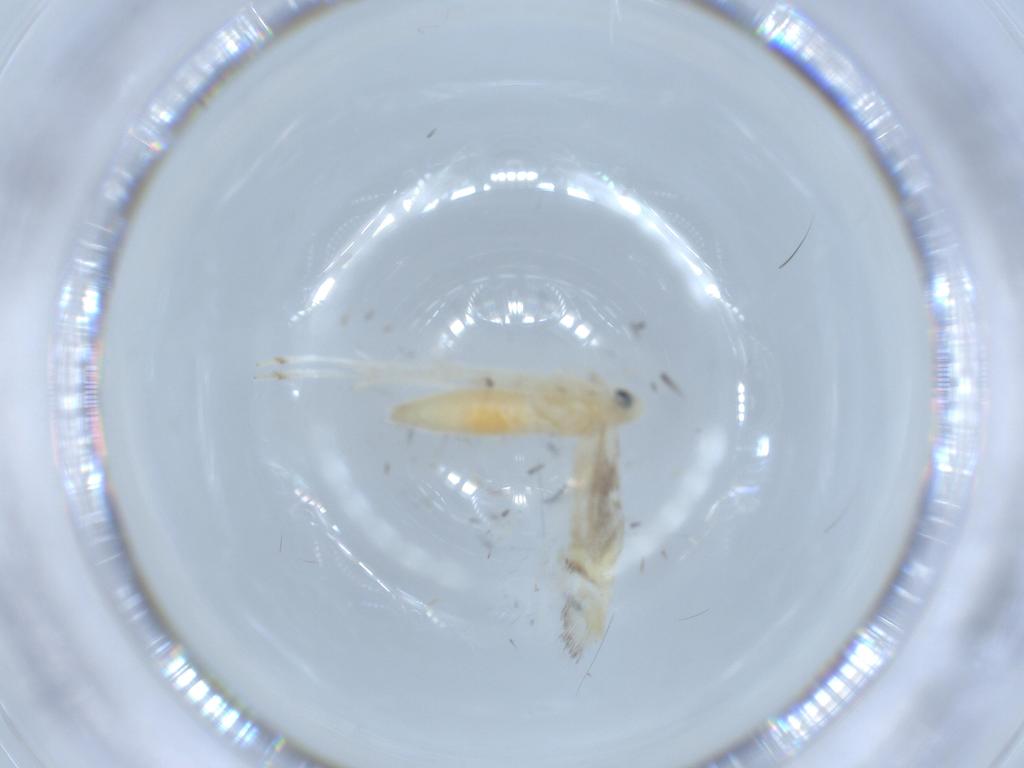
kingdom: Animalia
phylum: Arthropoda
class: Insecta
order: Lepidoptera
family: Gracillariidae
